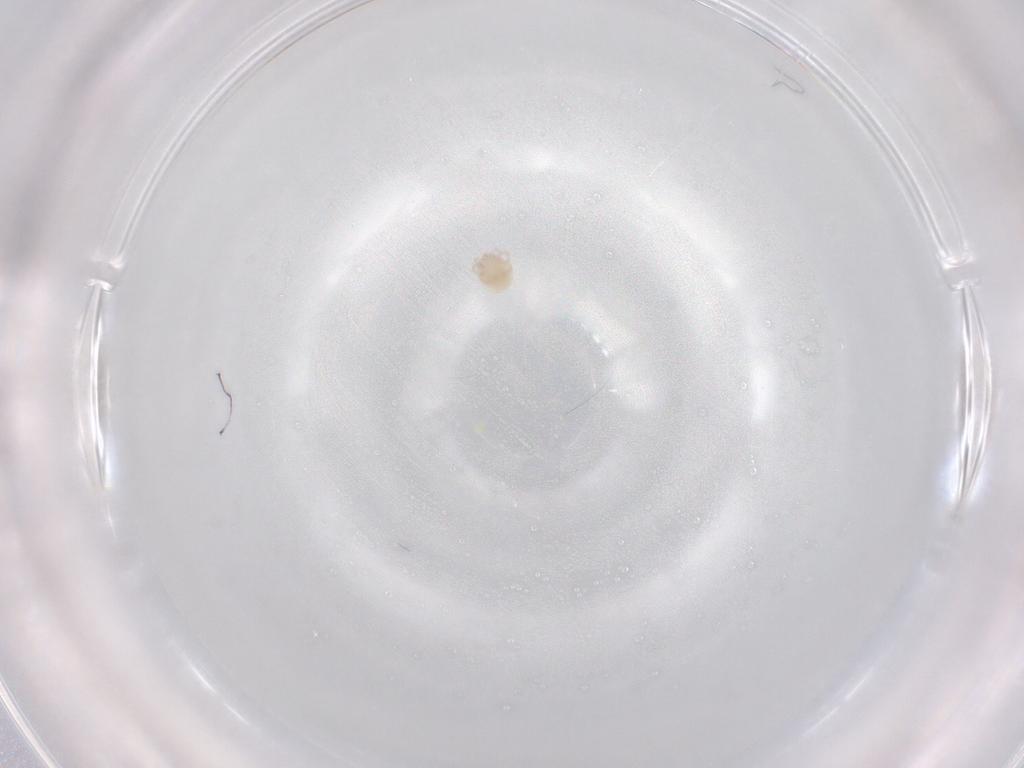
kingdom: Animalia
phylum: Arthropoda
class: Arachnida
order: Trombidiformes
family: Lebertiidae
